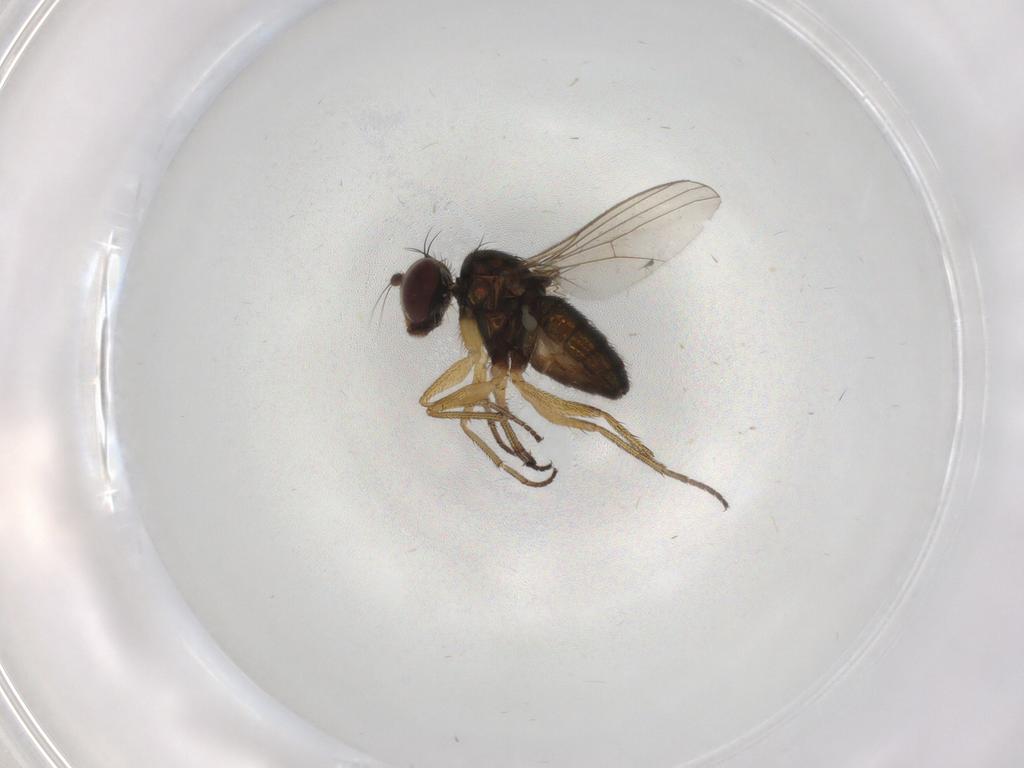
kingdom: Animalia
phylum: Arthropoda
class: Insecta
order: Diptera
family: Dolichopodidae
